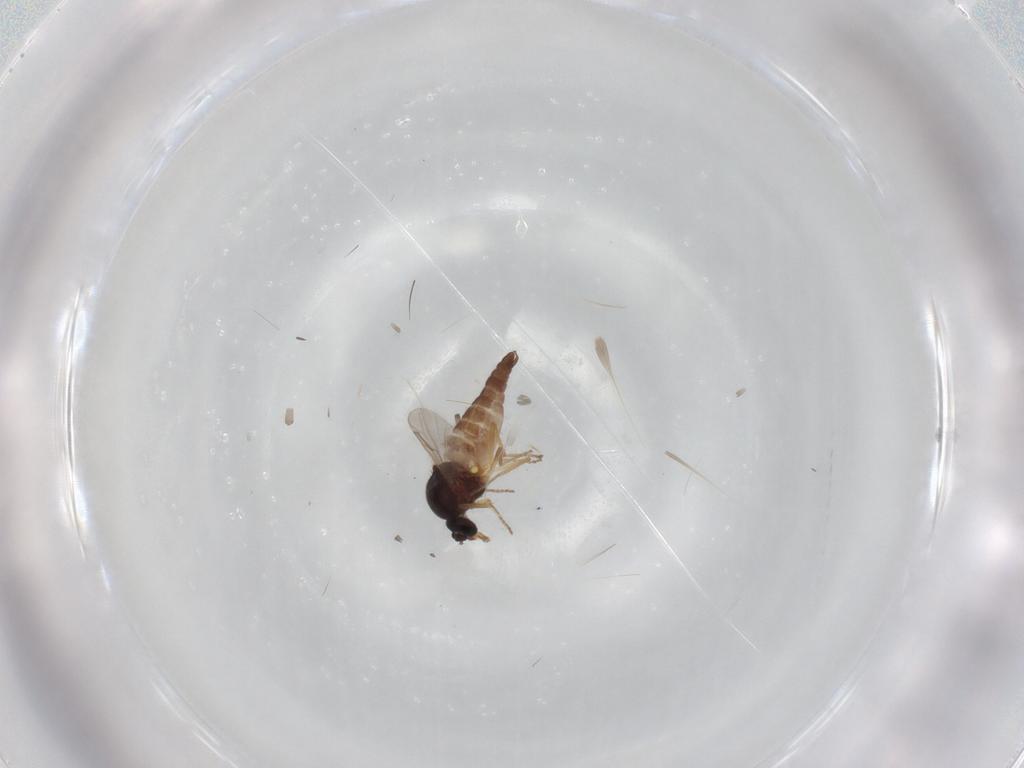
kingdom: Animalia
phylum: Arthropoda
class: Insecta
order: Diptera
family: Ceratopogonidae
